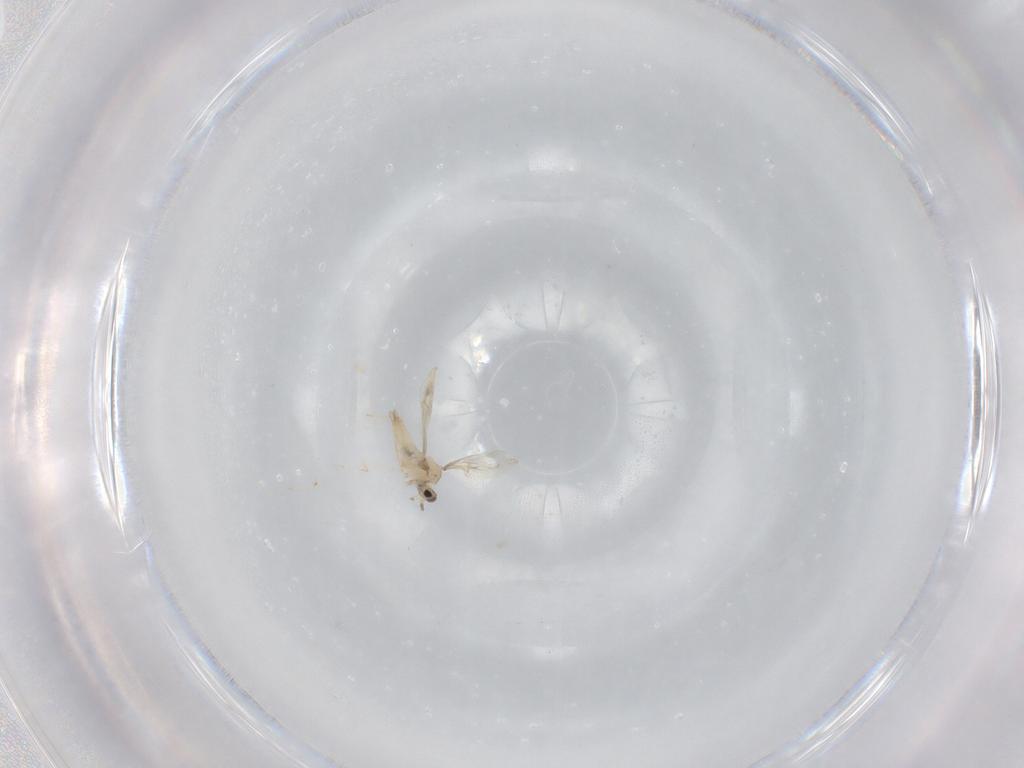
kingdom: Animalia
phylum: Arthropoda
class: Insecta
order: Diptera
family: Cecidomyiidae
